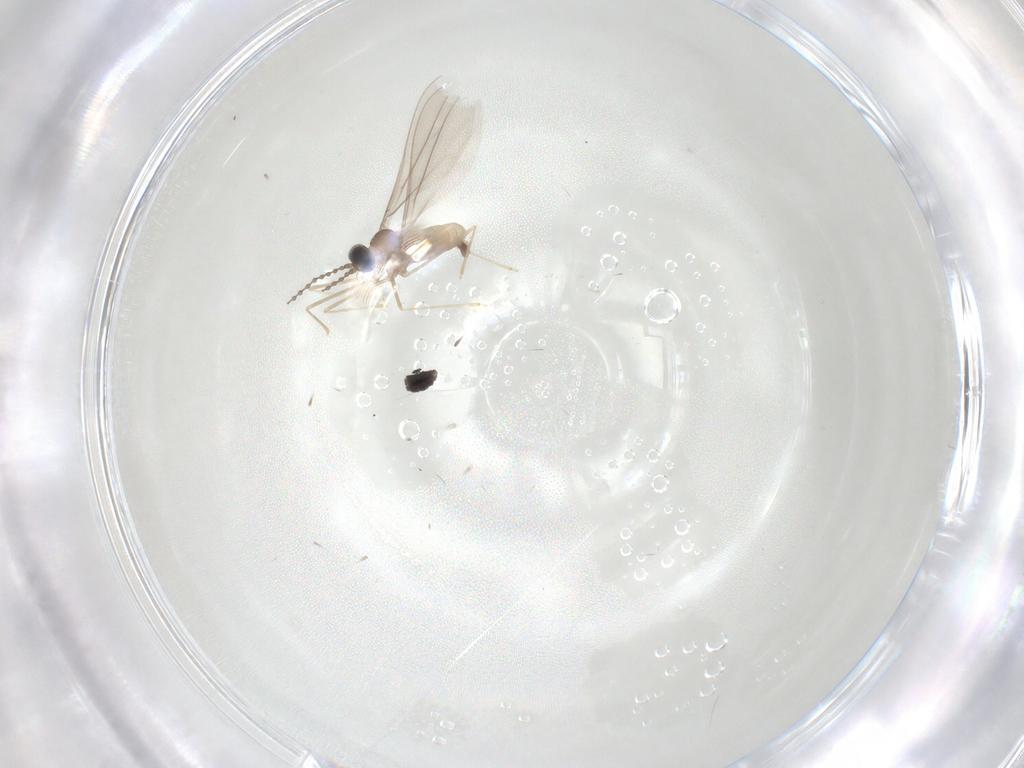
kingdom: Animalia
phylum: Arthropoda
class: Insecta
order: Diptera
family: Cecidomyiidae
